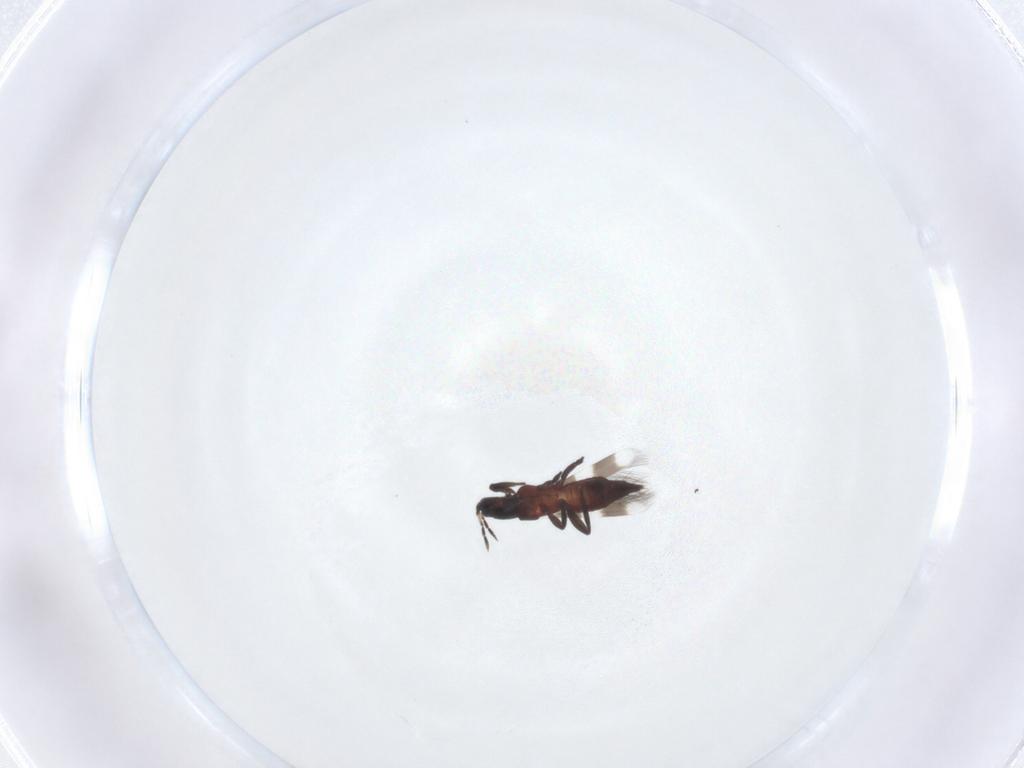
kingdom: Animalia
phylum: Arthropoda
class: Insecta
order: Thysanoptera
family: Aeolothripidae
